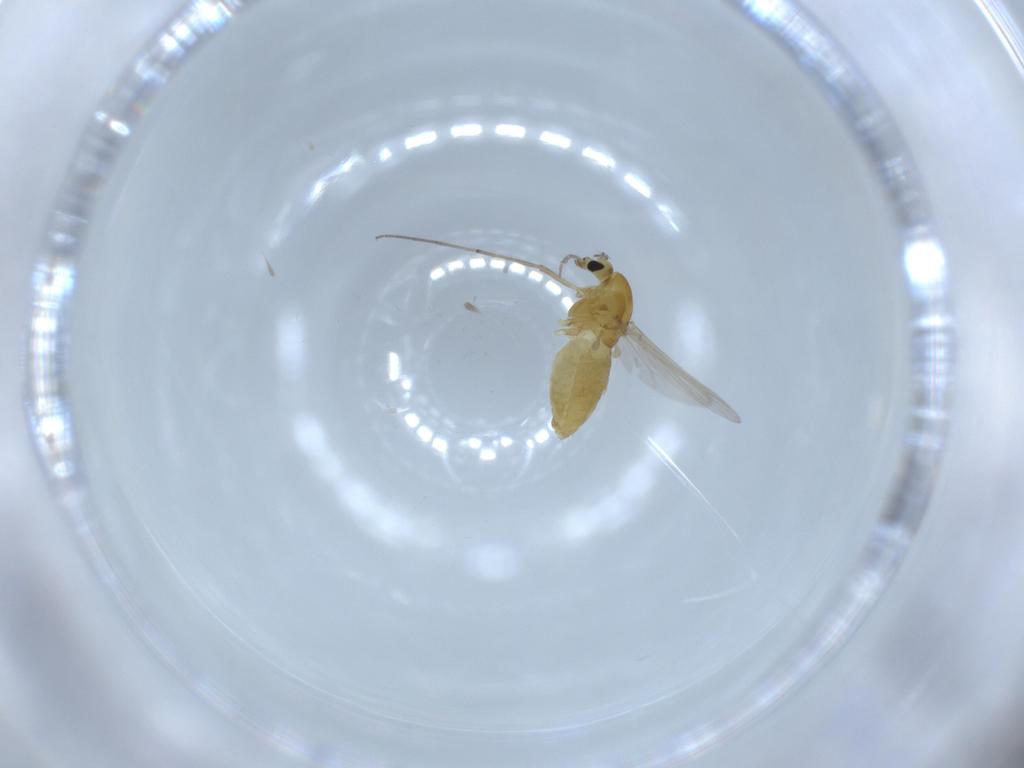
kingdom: Animalia
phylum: Arthropoda
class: Insecta
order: Diptera
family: Chironomidae
